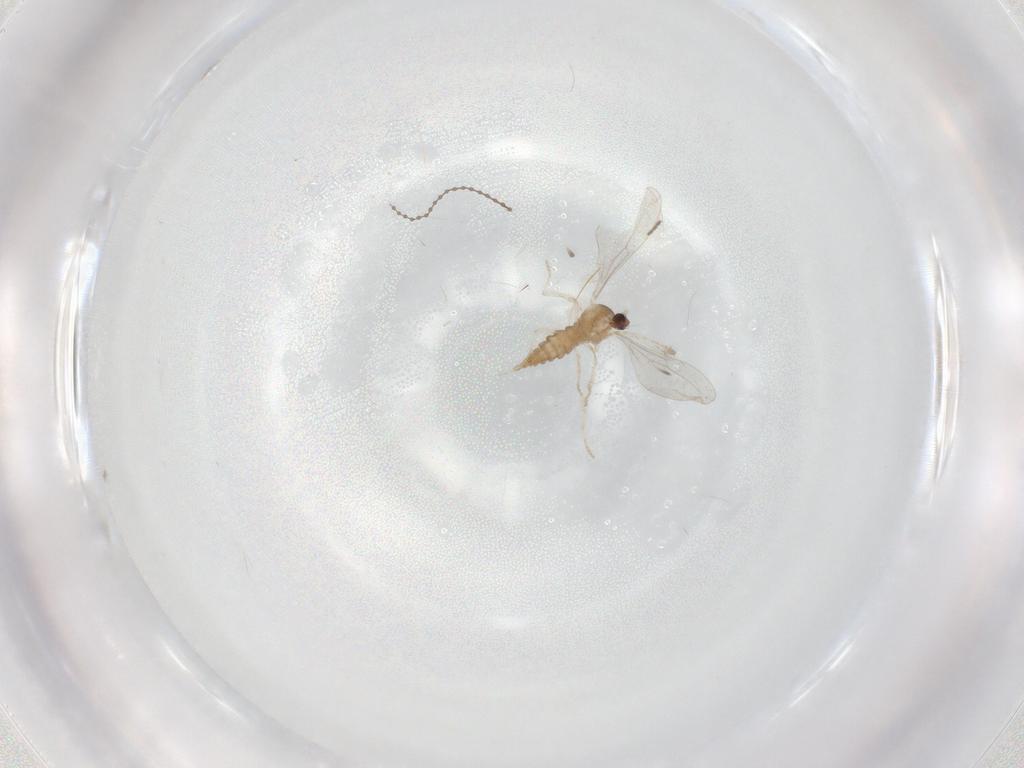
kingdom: Animalia
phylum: Arthropoda
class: Insecta
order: Diptera
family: Cecidomyiidae
